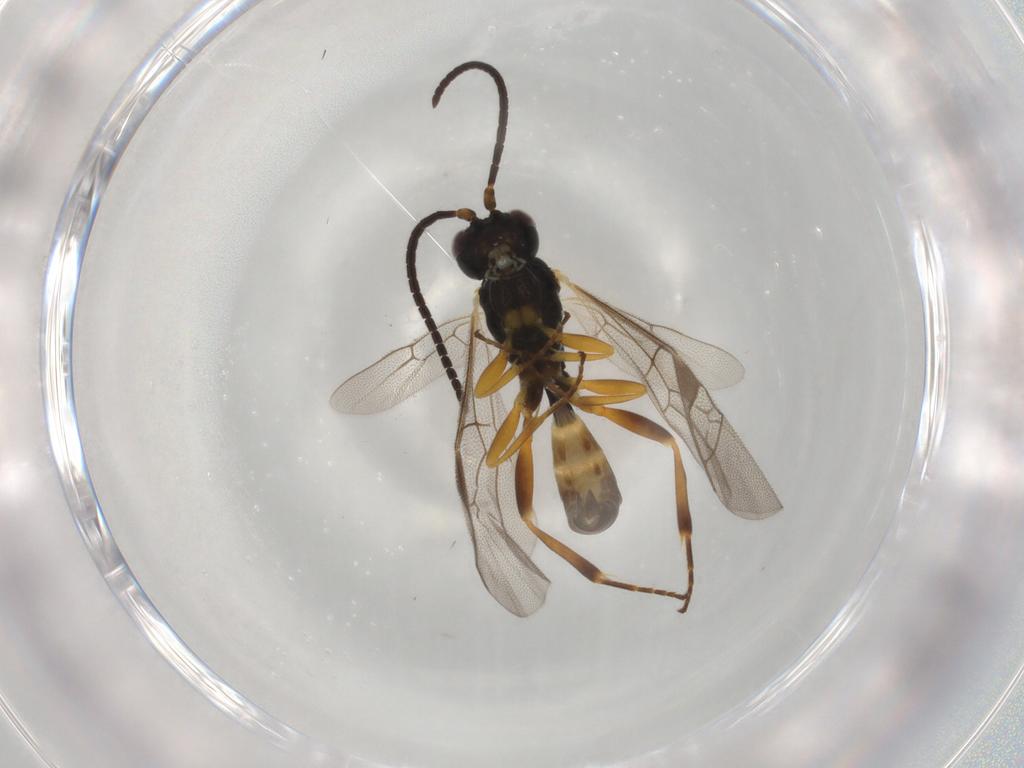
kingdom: Animalia
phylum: Arthropoda
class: Insecta
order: Hymenoptera
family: Ichneumonidae
